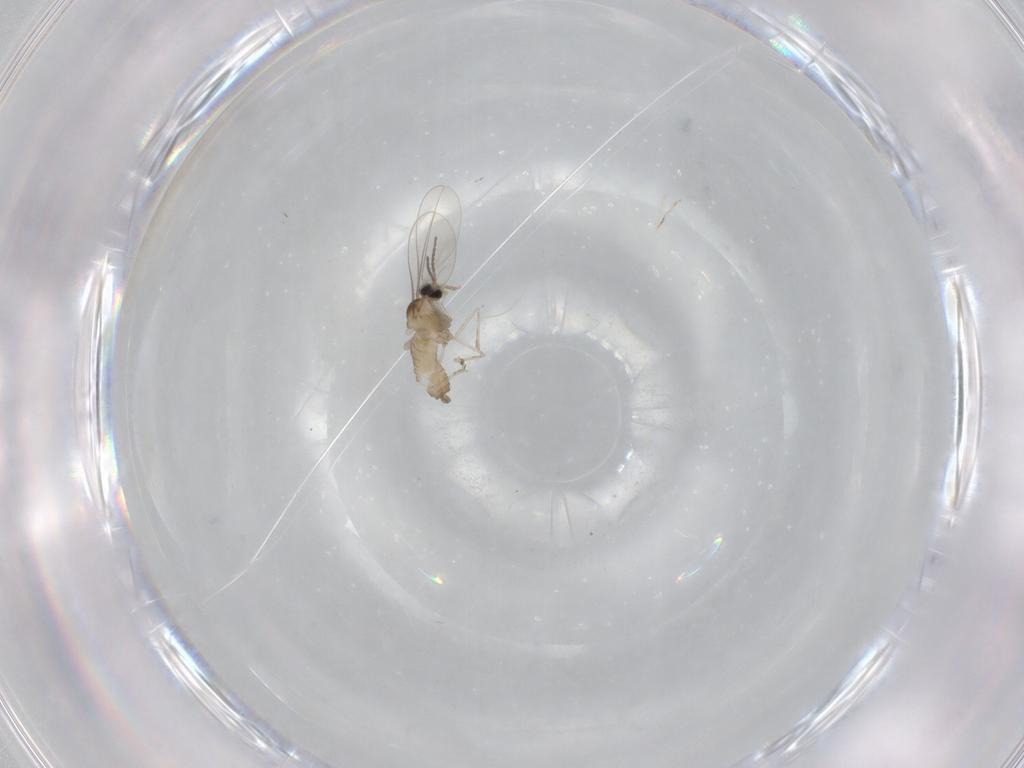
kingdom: Animalia
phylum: Arthropoda
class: Insecta
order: Diptera
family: Cecidomyiidae
